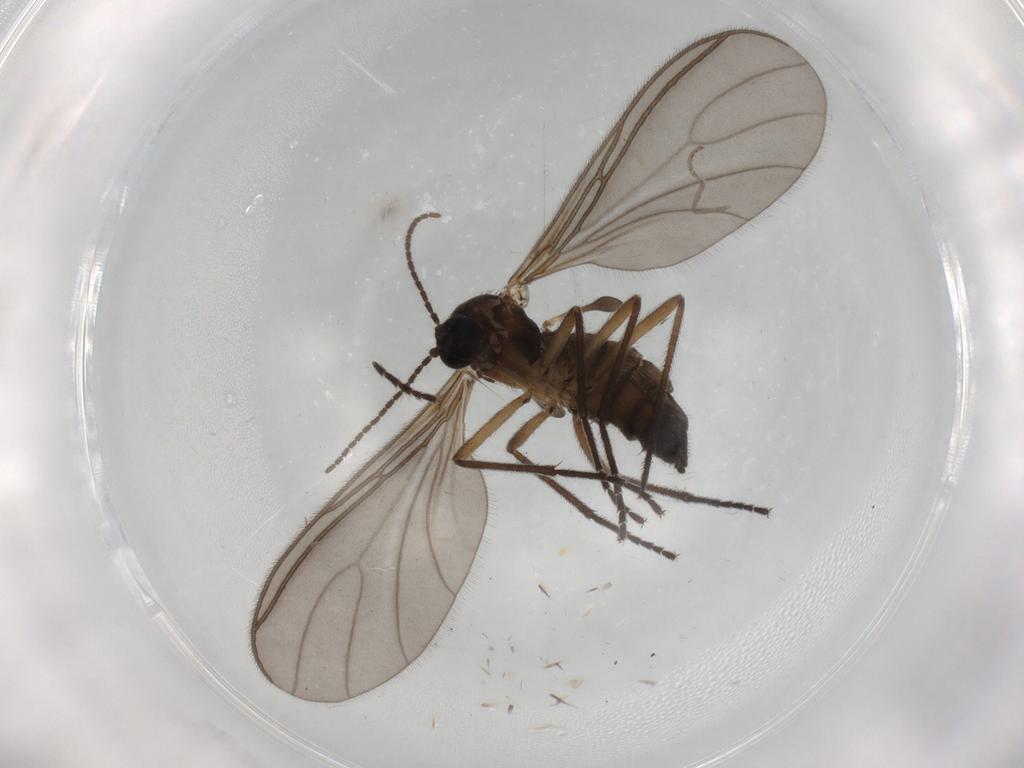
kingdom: Animalia
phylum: Arthropoda
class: Insecta
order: Diptera
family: Sciaridae
